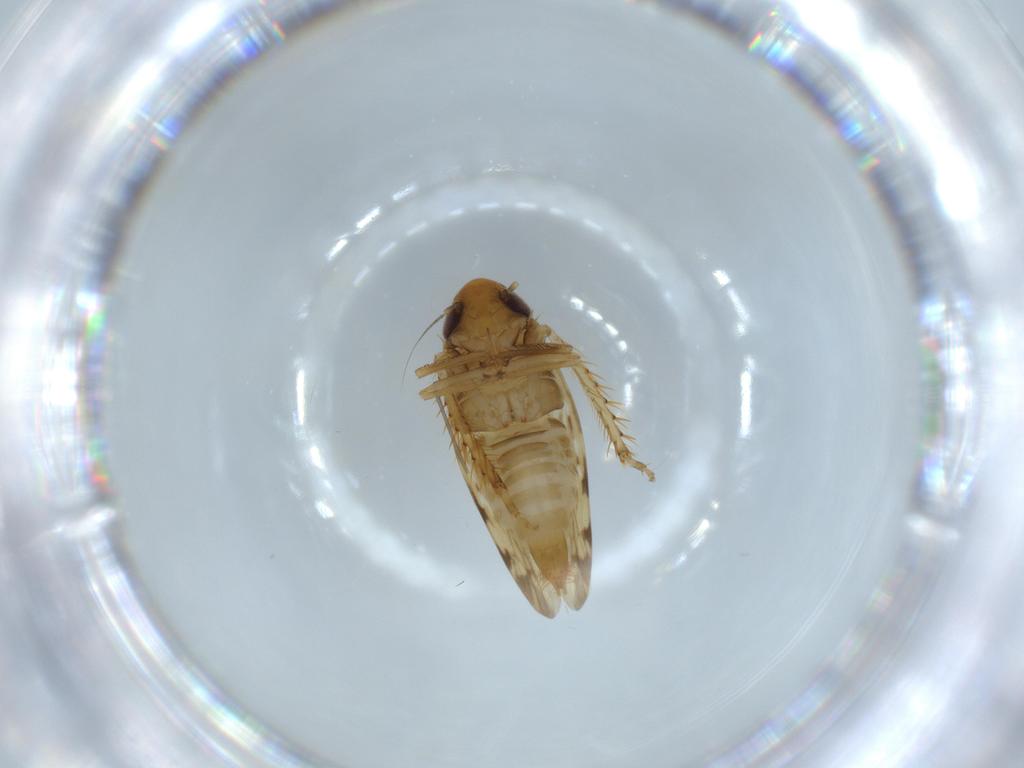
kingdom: Animalia
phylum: Arthropoda
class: Insecta
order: Hemiptera
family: Cicadellidae
